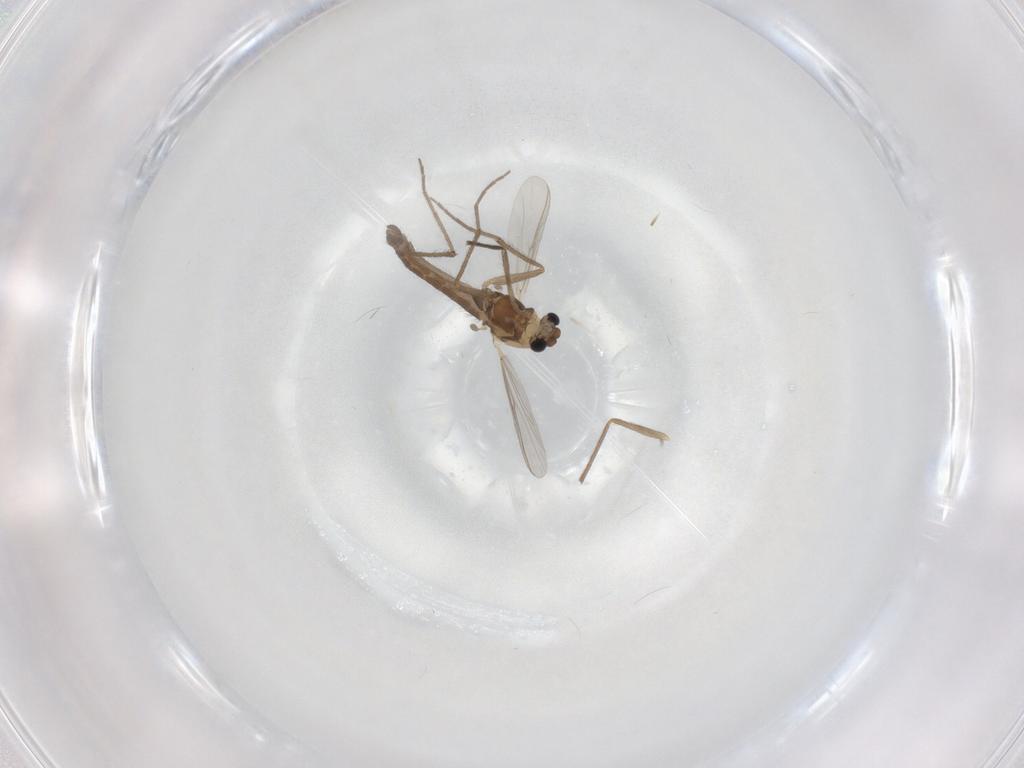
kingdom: Animalia
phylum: Arthropoda
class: Insecta
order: Diptera
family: Chironomidae
